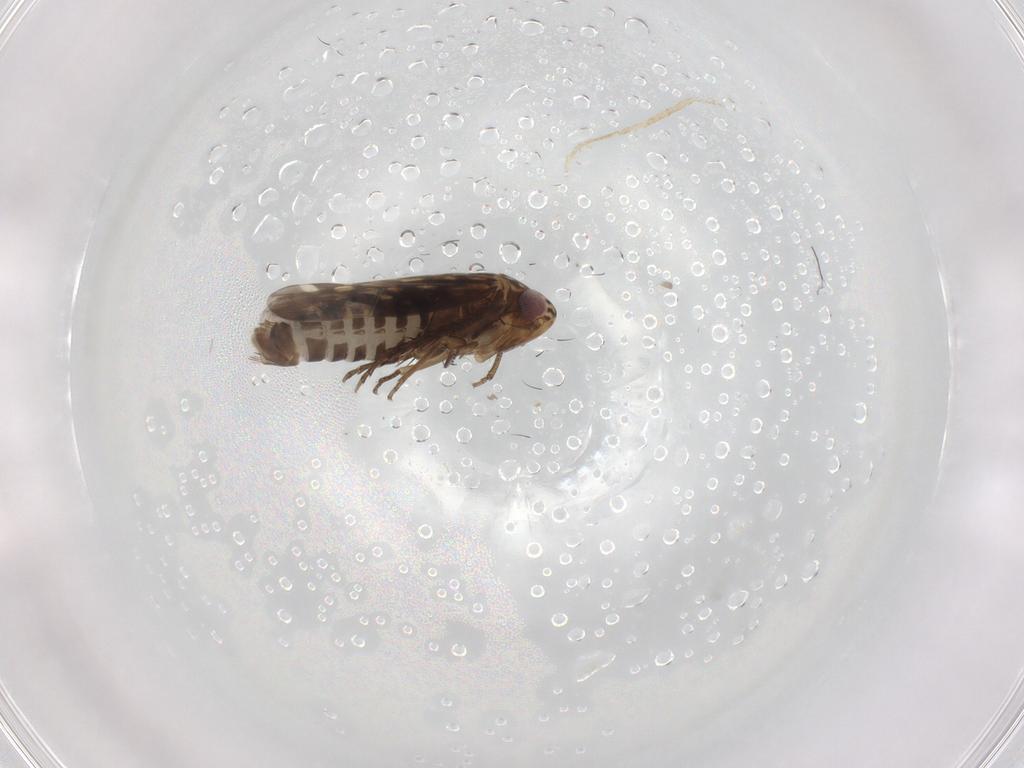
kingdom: Animalia
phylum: Arthropoda
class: Insecta
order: Hemiptera
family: Cicadellidae
